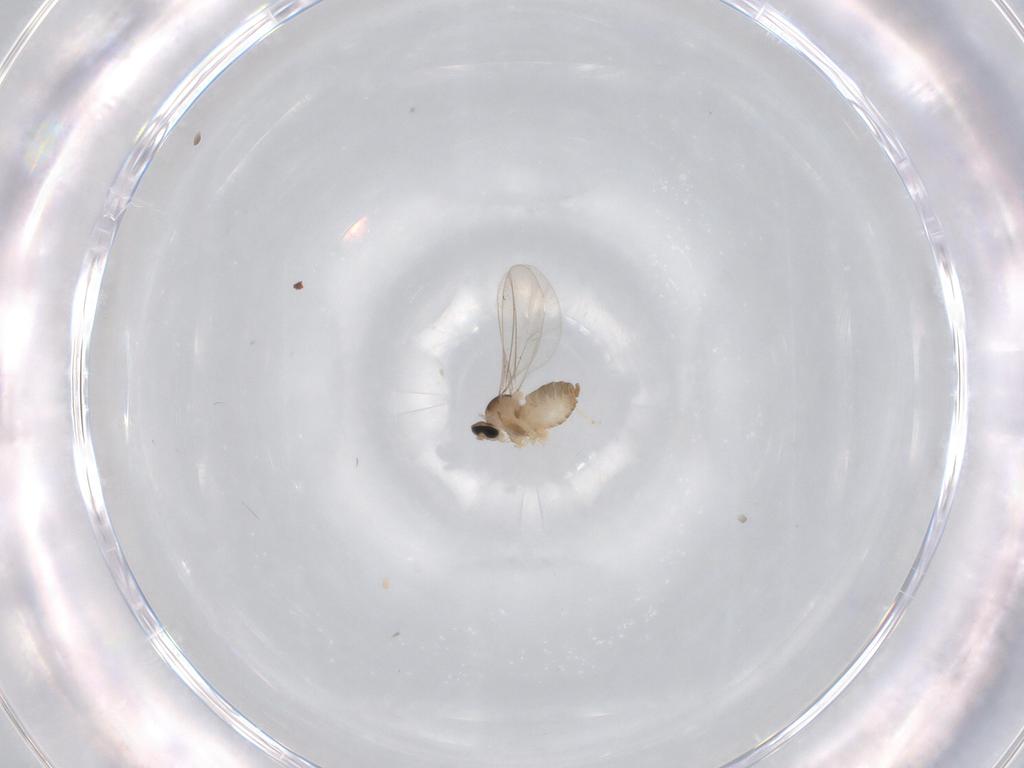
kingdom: Animalia
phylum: Arthropoda
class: Insecta
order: Diptera
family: Cecidomyiidae
